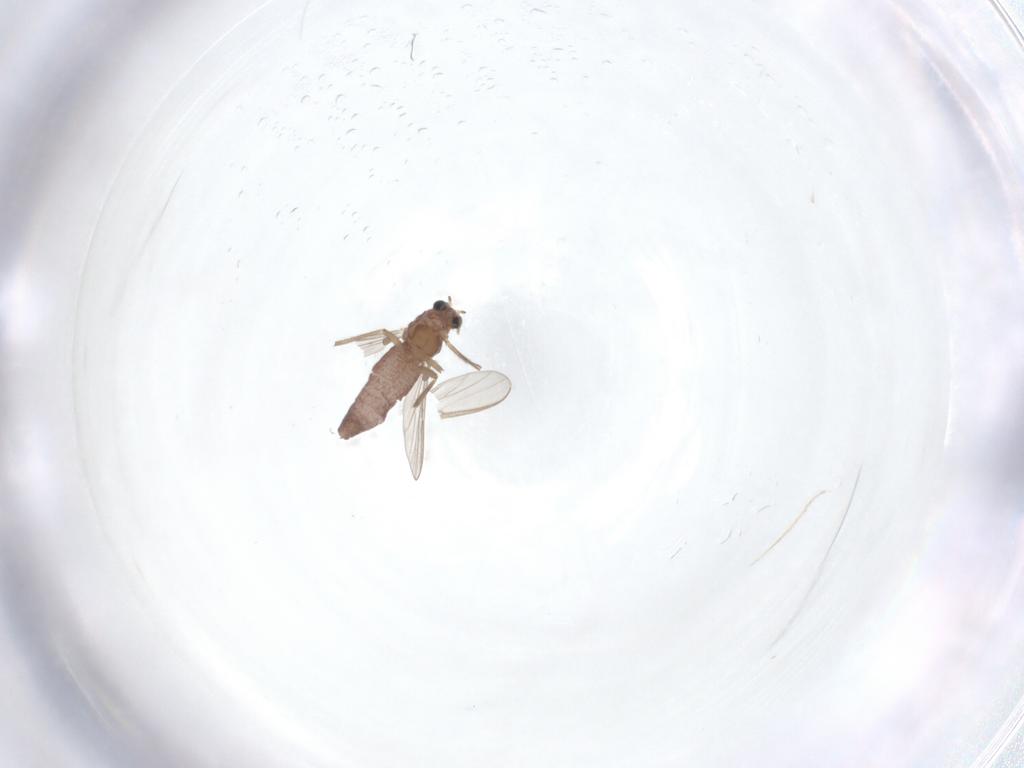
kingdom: Animalia
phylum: Arthropoda
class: Insecta
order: Diptera
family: Chironomidae
